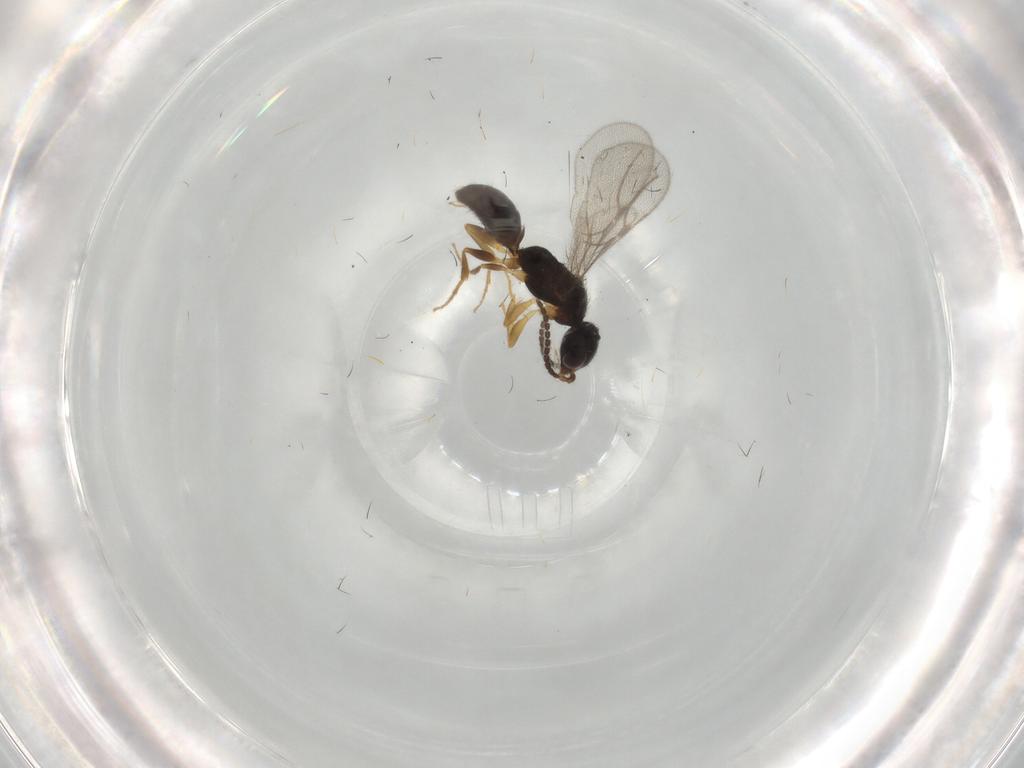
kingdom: Animalia
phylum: Arthropoda
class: Insecta
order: Hymenoptera
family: Bethylidae
